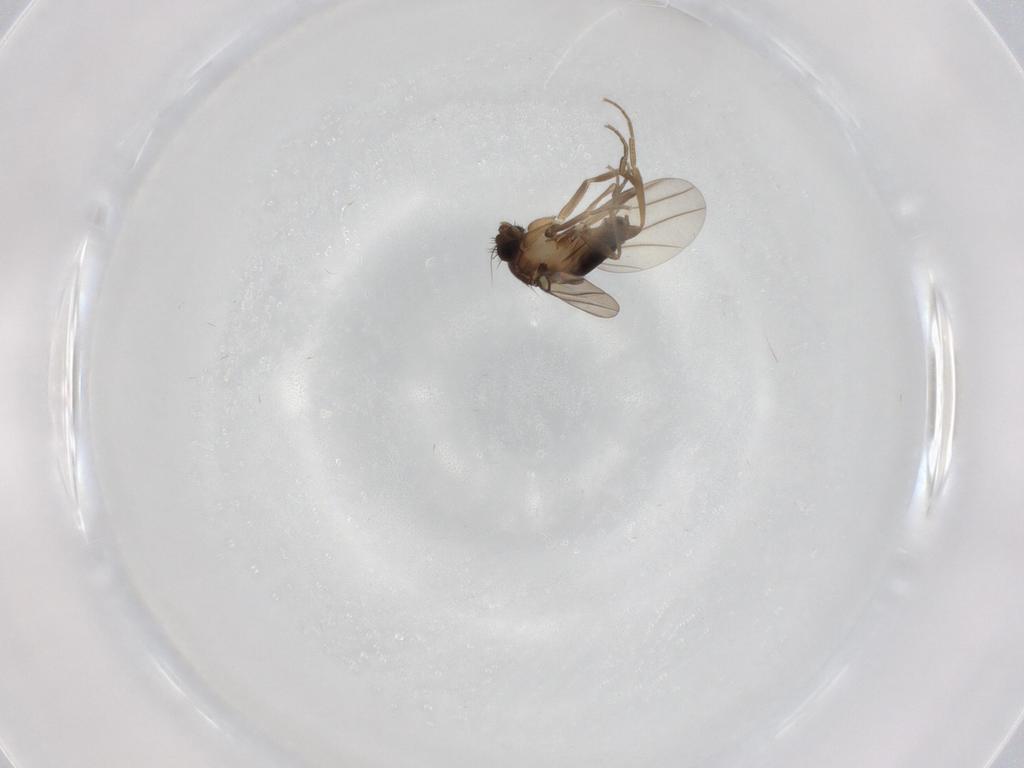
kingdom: Animalia
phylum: Arthropoda
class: Insecta
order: Diptera
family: Phoridae
